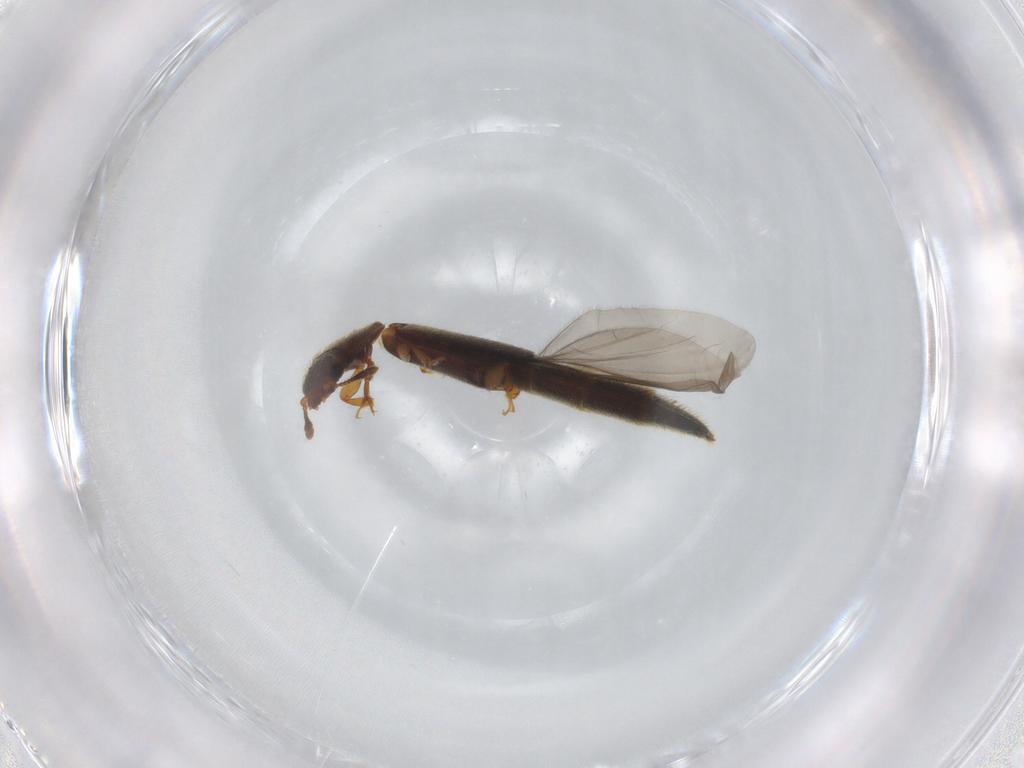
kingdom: Animalia
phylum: Arthropoda
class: Insecta
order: Coleoptera
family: Nitidulidae
